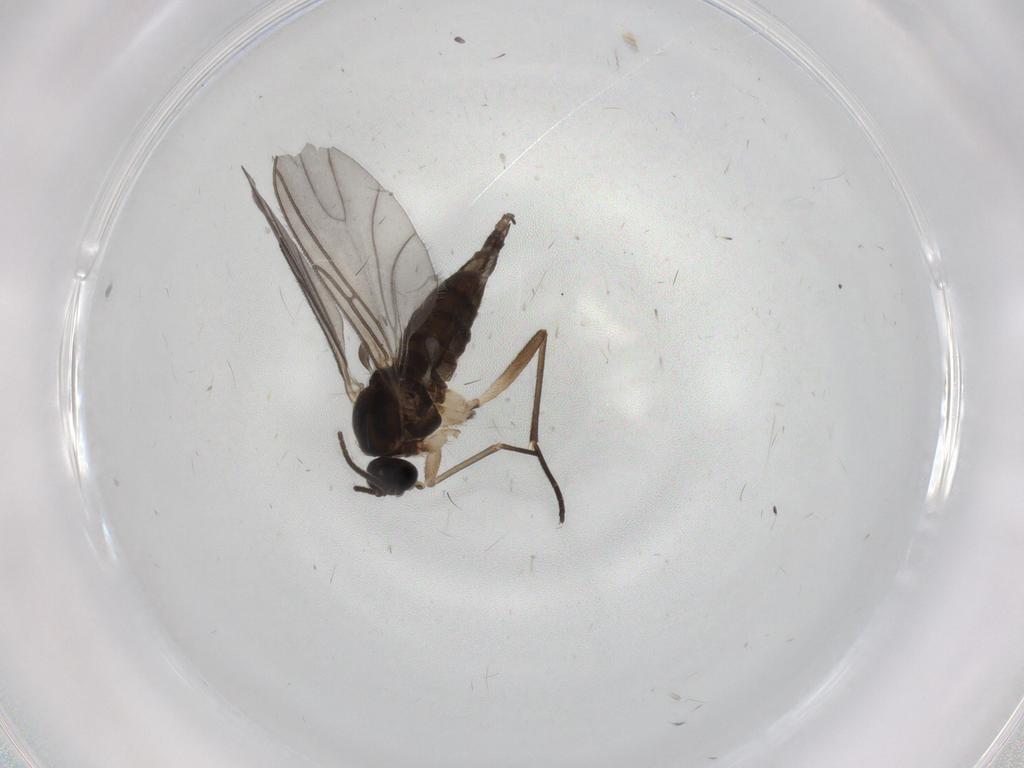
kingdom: Animalia
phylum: Arthropoda
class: Insecta
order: Diptera
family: Sciaridae
